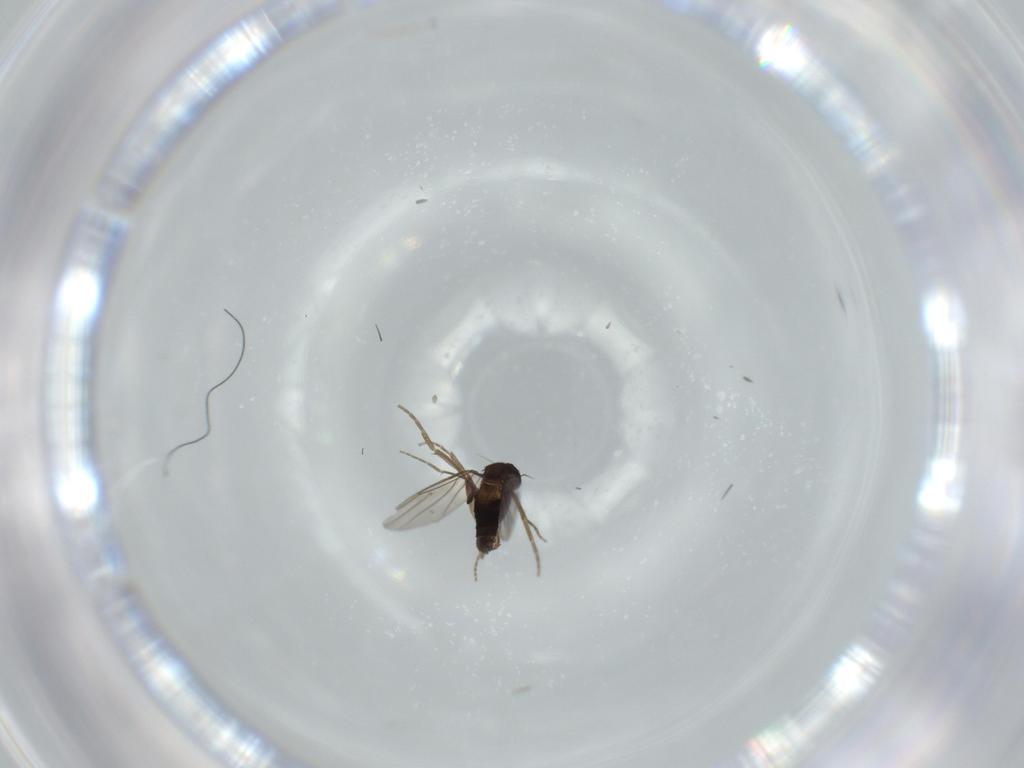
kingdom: Animalia
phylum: Arthropoda
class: Insecta
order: Diptera
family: Phoridae
